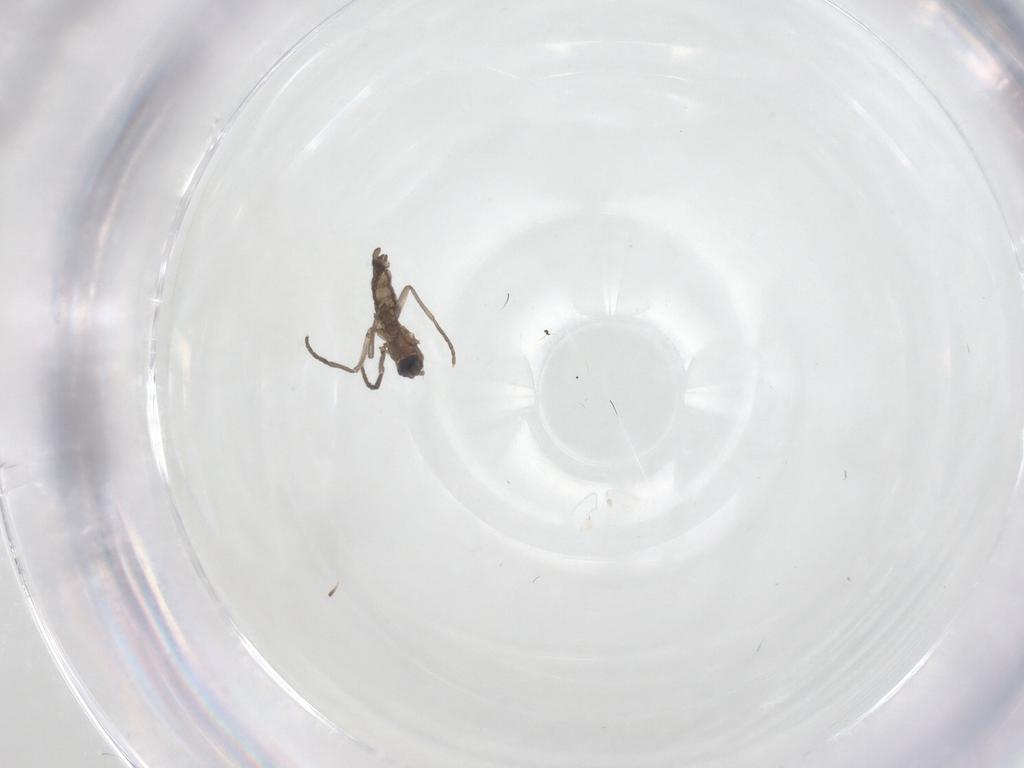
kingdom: Animalia
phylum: Arthropoda
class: Insecta
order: Diptera
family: Sciaridae
